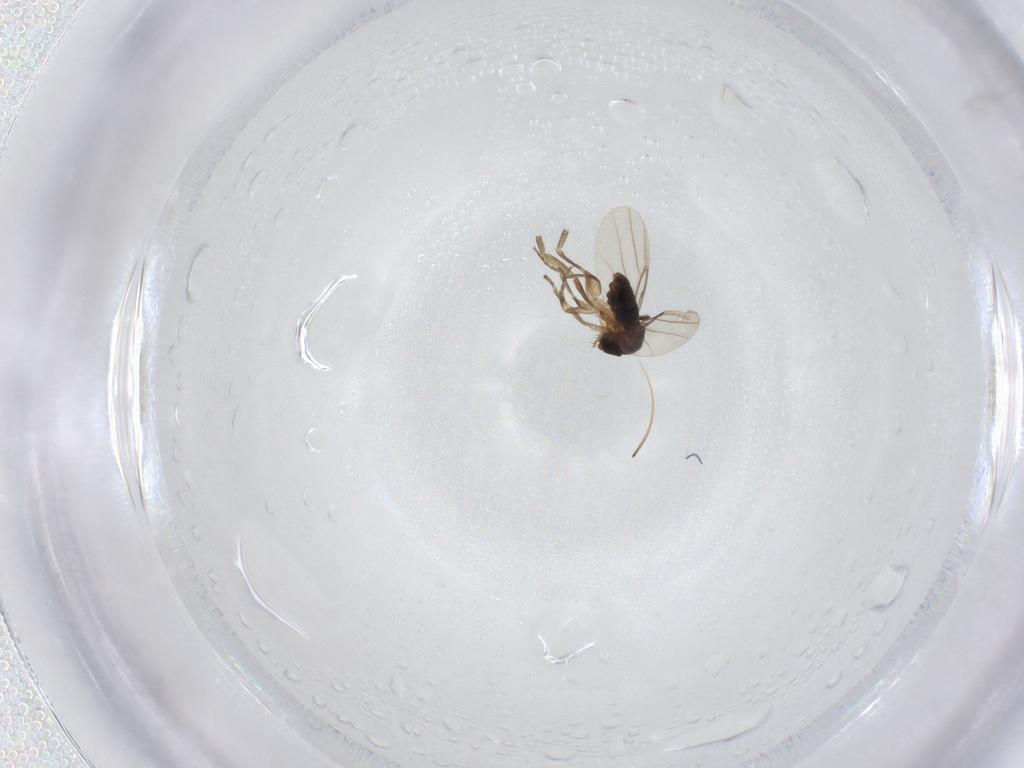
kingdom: Animalia
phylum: Arthropoda
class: Insecta
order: Diptera
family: Phoridae
